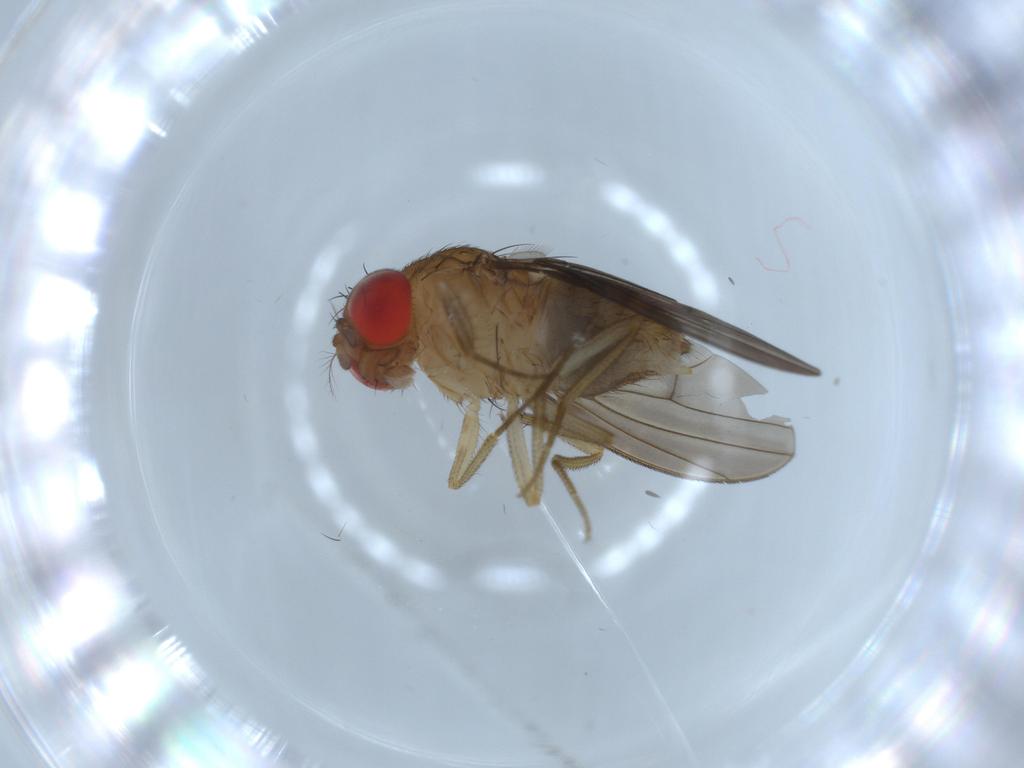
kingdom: Animalia
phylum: Arthropoda
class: Insecta
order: Diptera
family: Drosophilidae
